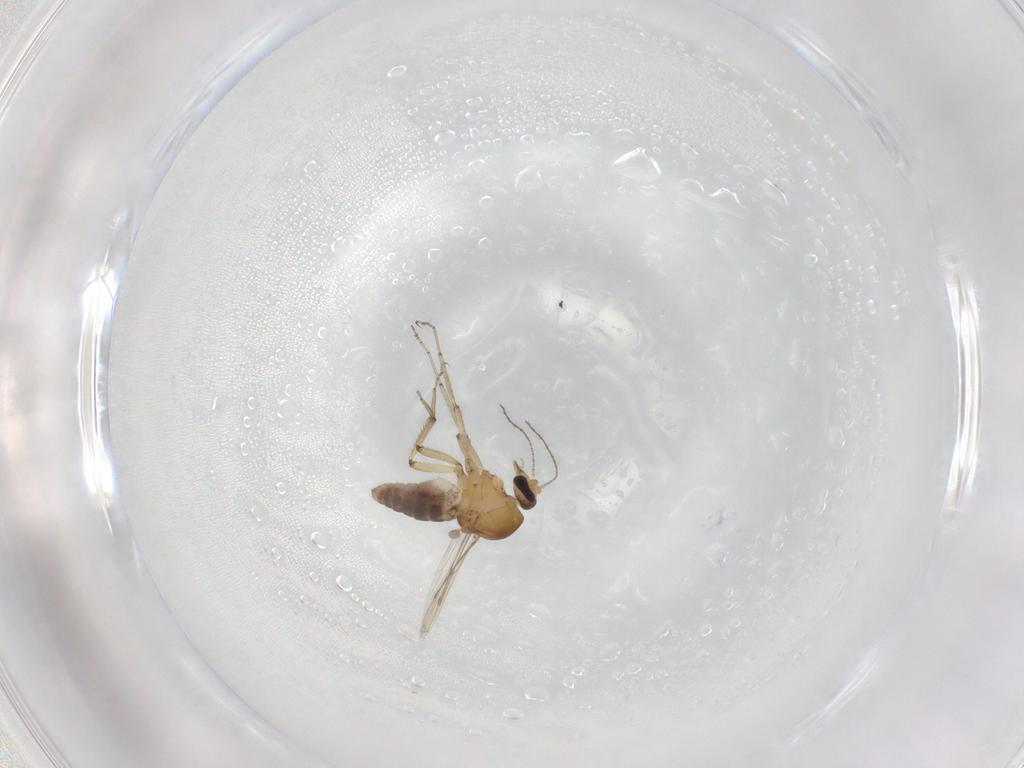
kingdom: Animalia
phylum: Arthropoda
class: Insecta
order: Diptera
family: Ceratopogonidae
